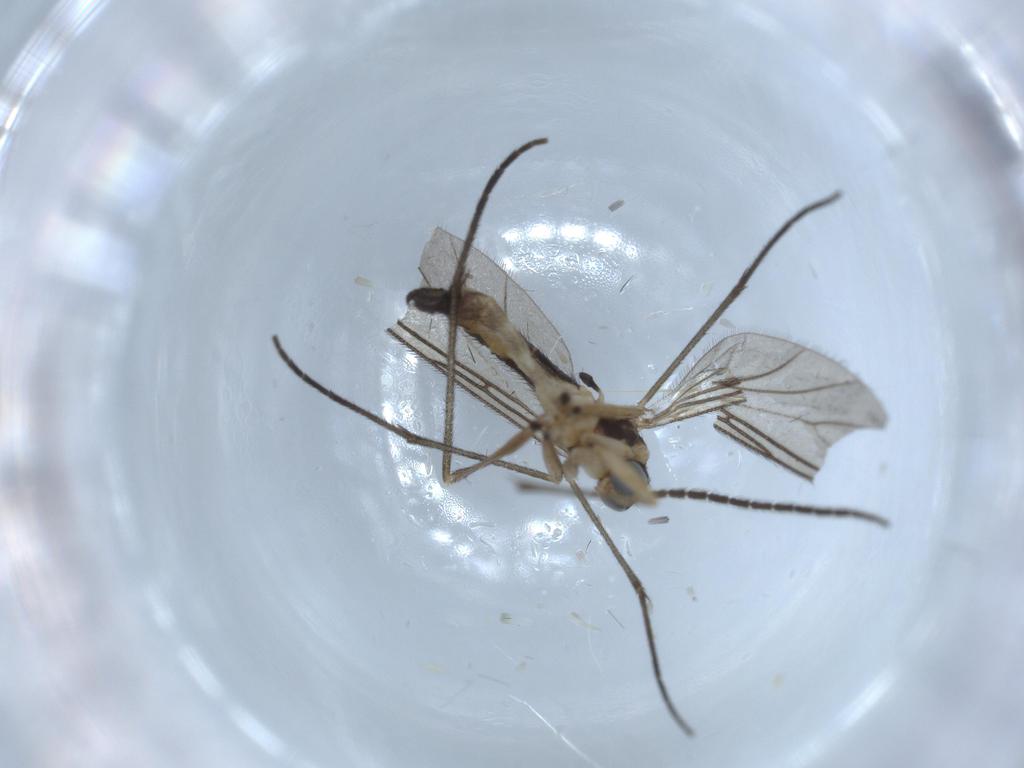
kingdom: Animalia
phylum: Arthropoda
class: Insecta
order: Diptera
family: Sciaridae
